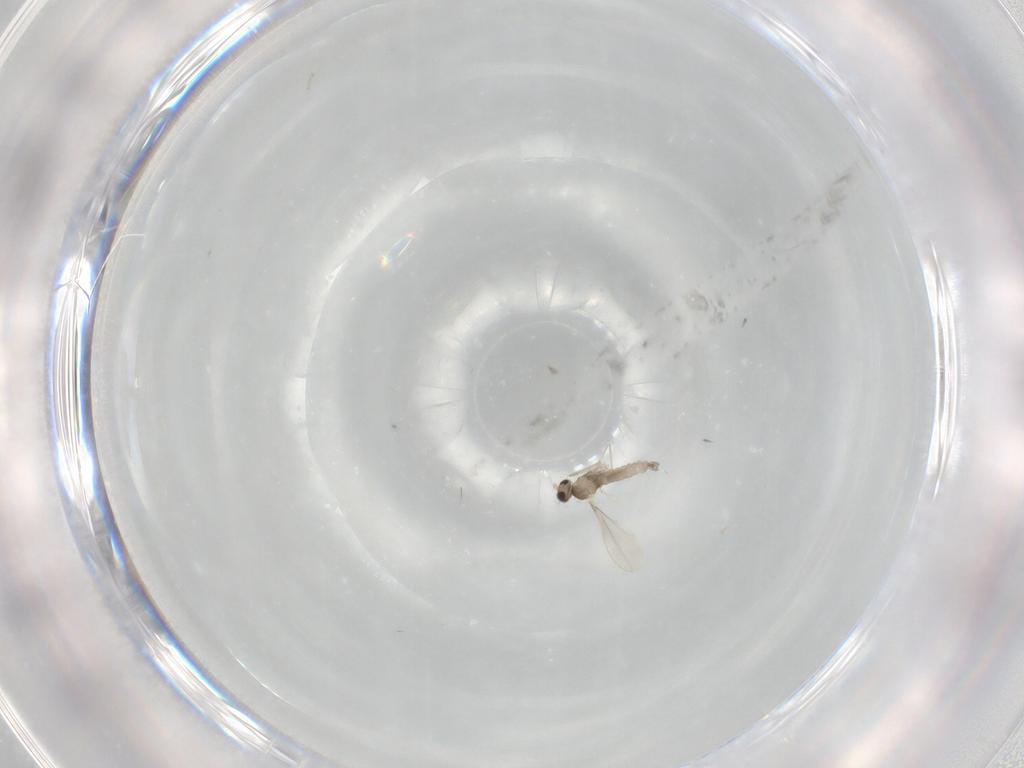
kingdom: Animalia
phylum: Arthropoda
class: Insecta
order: Diptera
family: Cecidomyiidae
